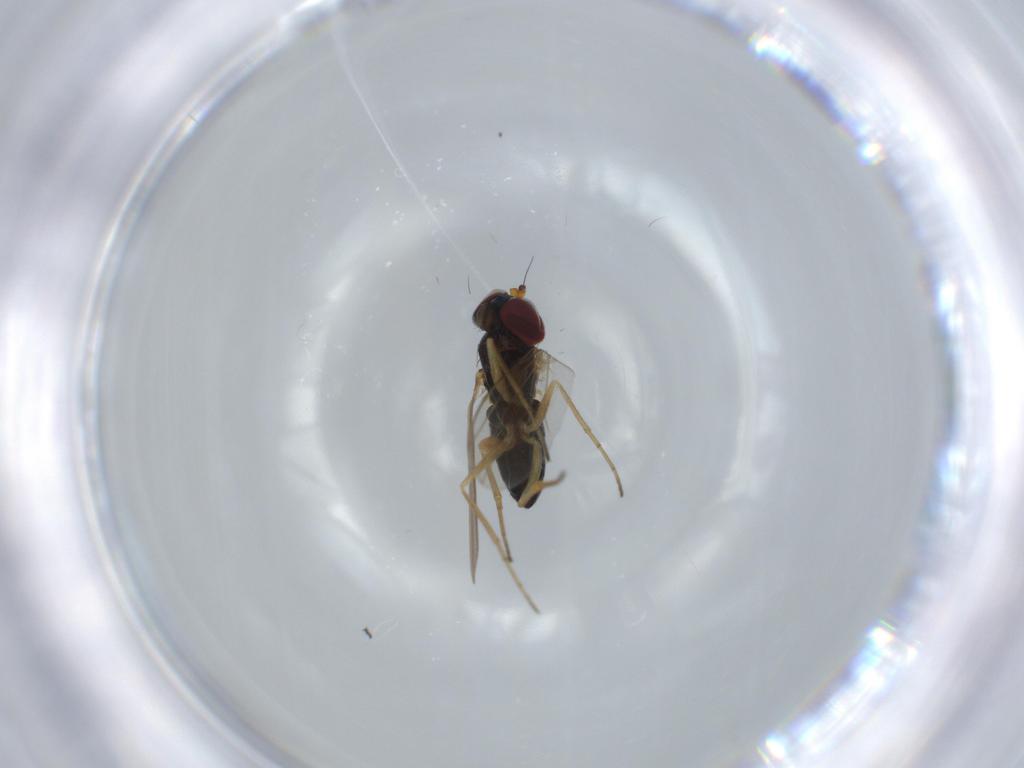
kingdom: Animalia
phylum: Arthropoda
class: Insecta
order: Diptera
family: Dolichopodidae
